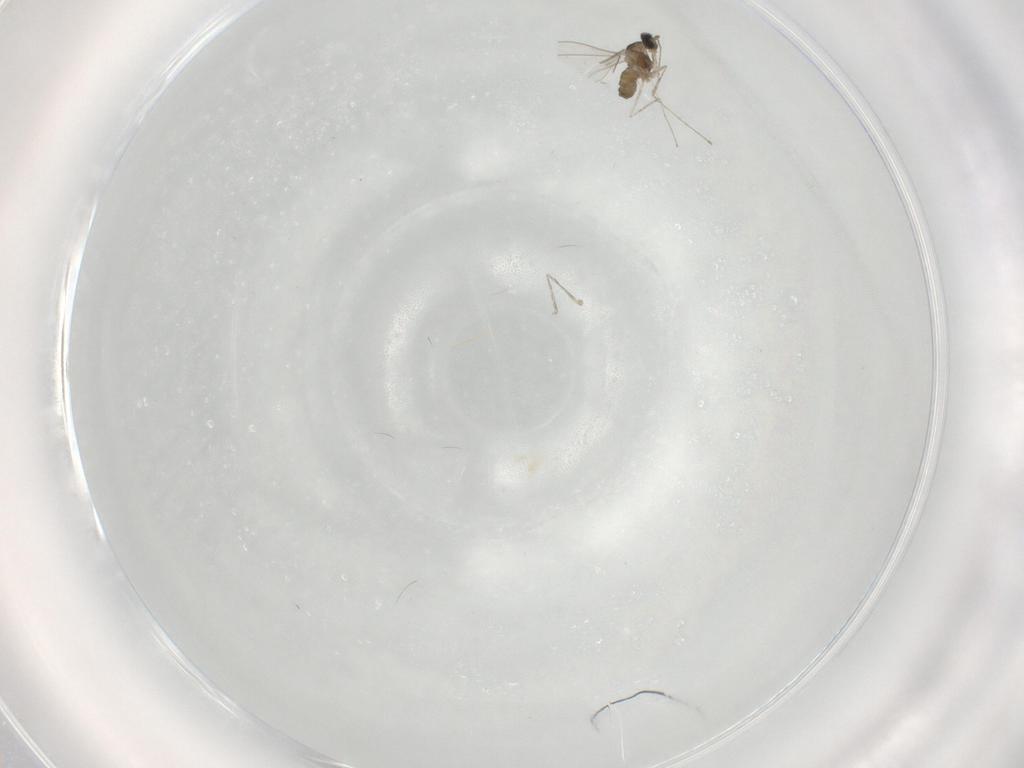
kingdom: Animalia
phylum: Arthropoda
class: Insecta
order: Diptera
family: Cecidomyiidae
